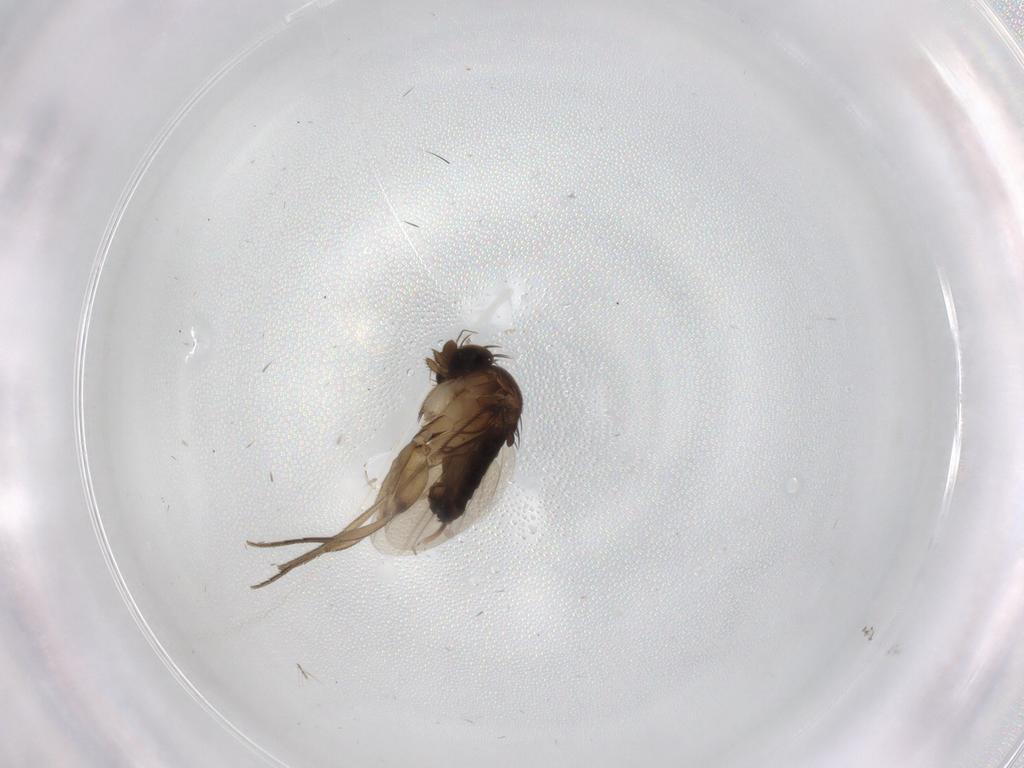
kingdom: Animalia
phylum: Arthropoda
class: Insecta
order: Diptera
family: Phoridae
